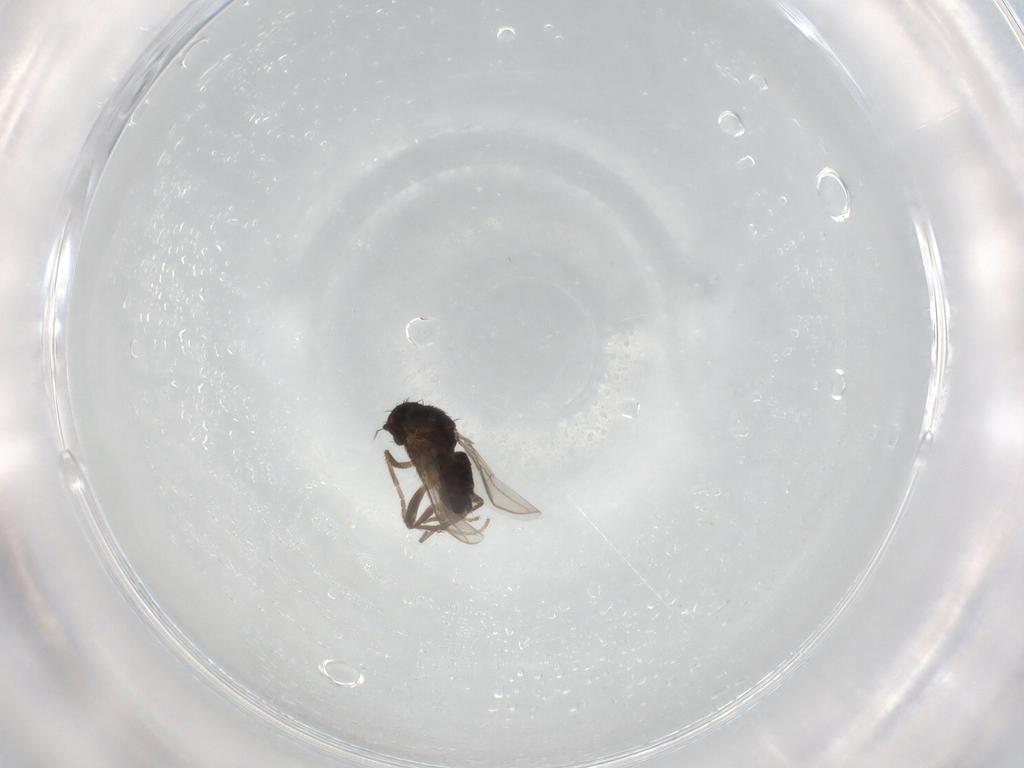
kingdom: Animalia
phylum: Arthropoda
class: Insecta
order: Diptera
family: Sphaeroceridae
